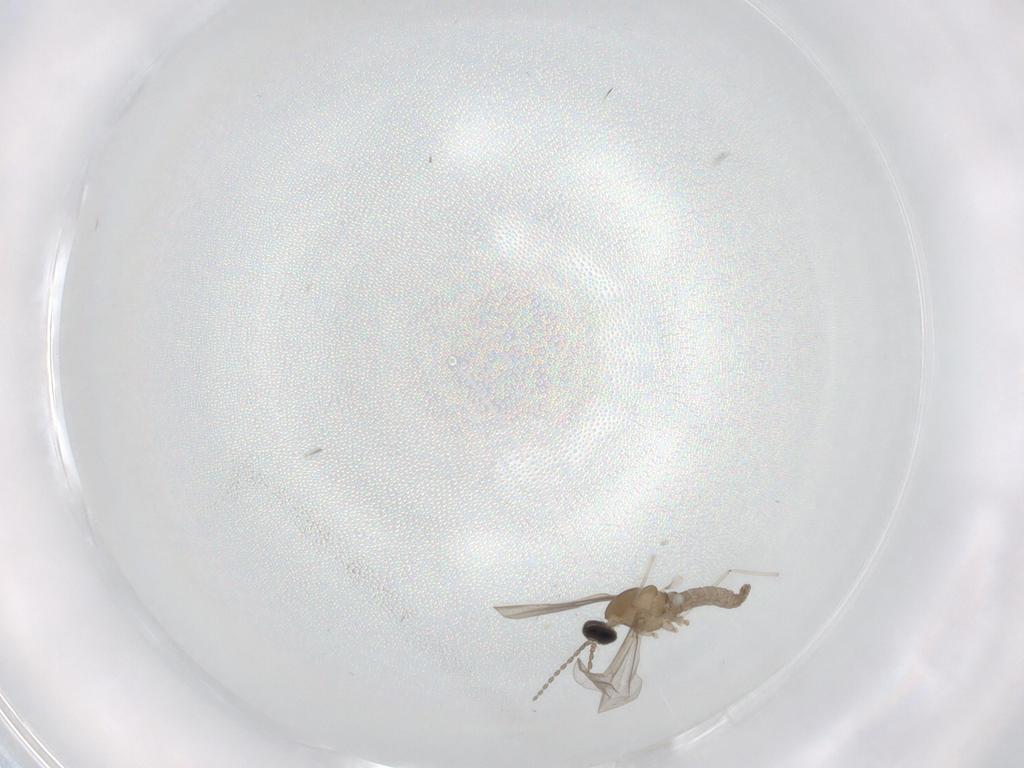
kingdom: Animalia
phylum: Arthropoda
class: Insecta
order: Diptera
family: Cecidomyiidae
